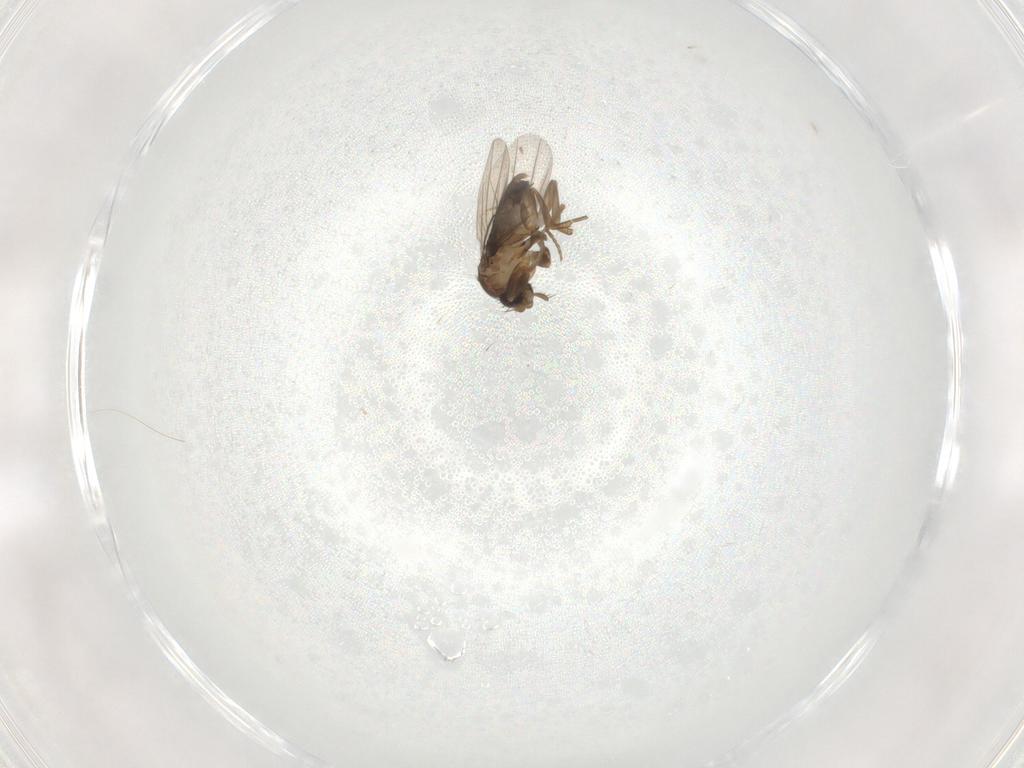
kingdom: Animalia
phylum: Arthropoda
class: Insecta
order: Diptera
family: Chironomidae
